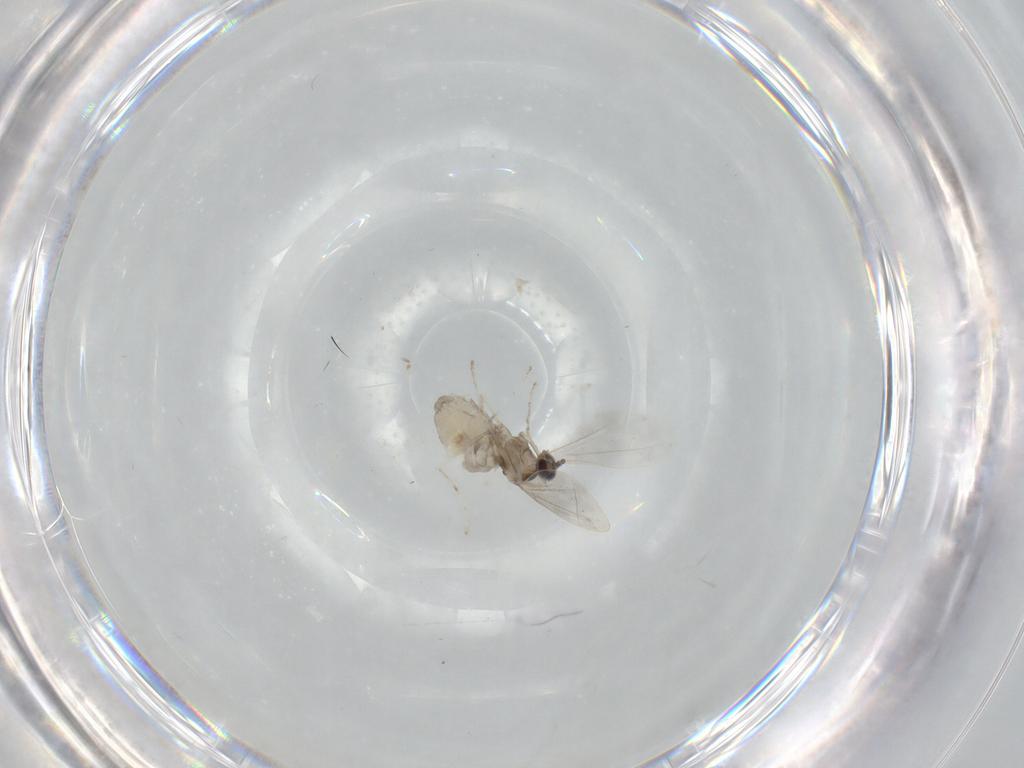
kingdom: Animalia
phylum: Arthropoda
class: Insecta
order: Diptera
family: Cecidomyiidae
